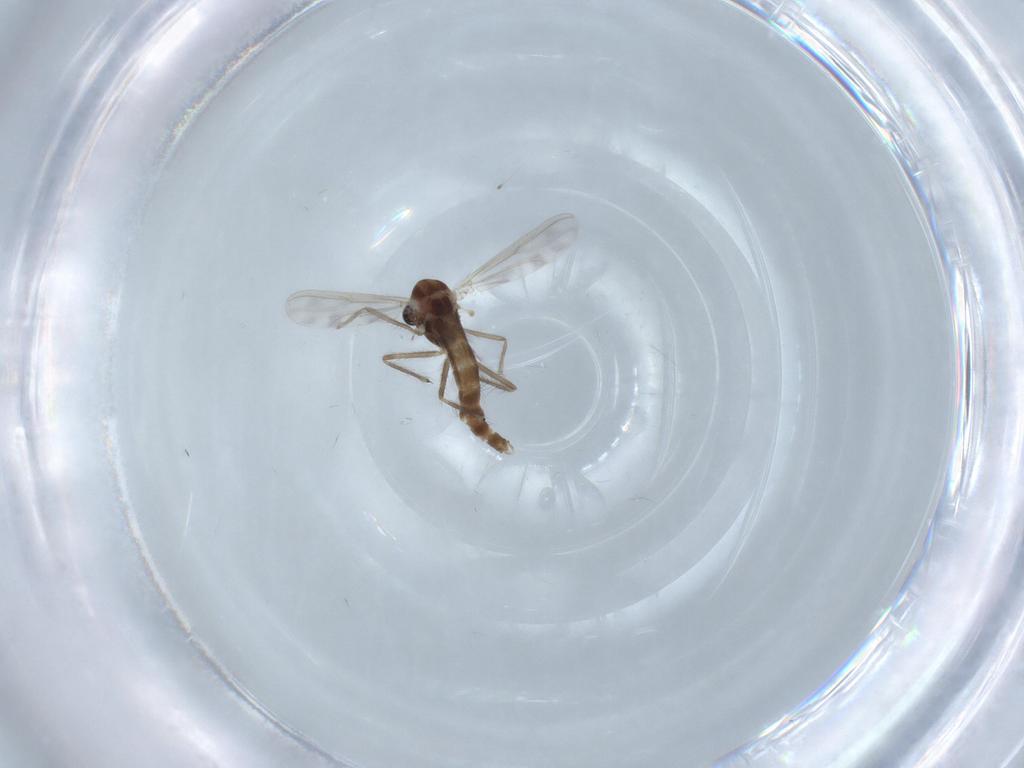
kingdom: Animalia
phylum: Arthropoda
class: Insecta
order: Diptera
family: Chironomidae
